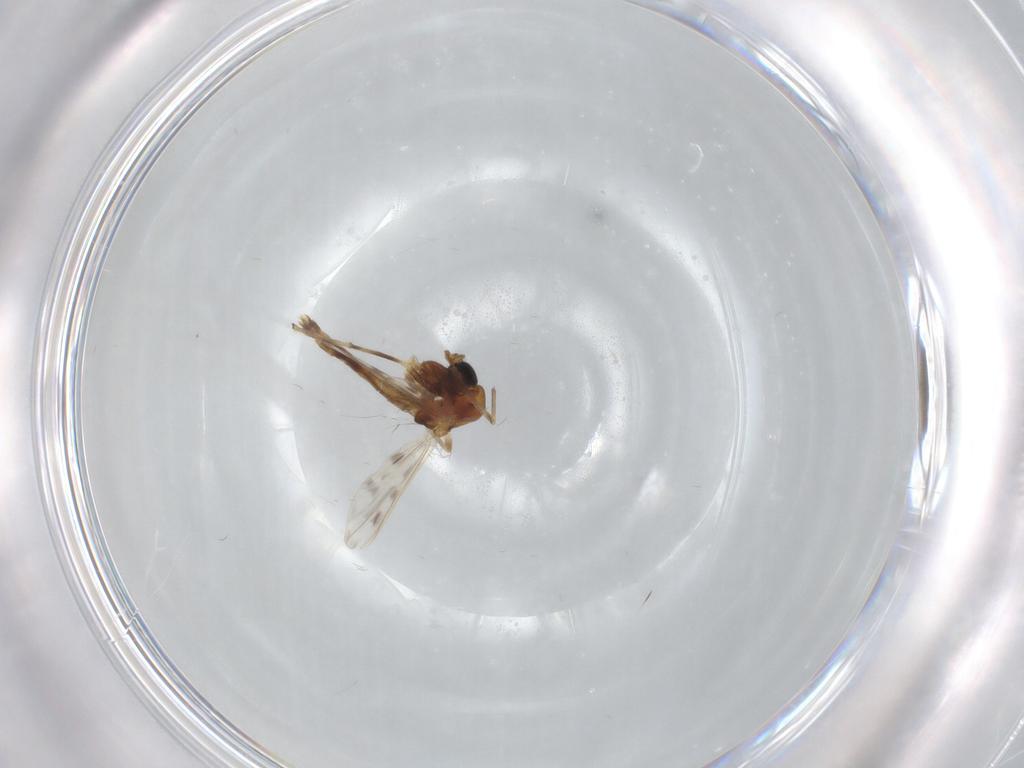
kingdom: Animalia
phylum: Arthropoda
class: Insecta
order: Diptera
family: Chironomidae
